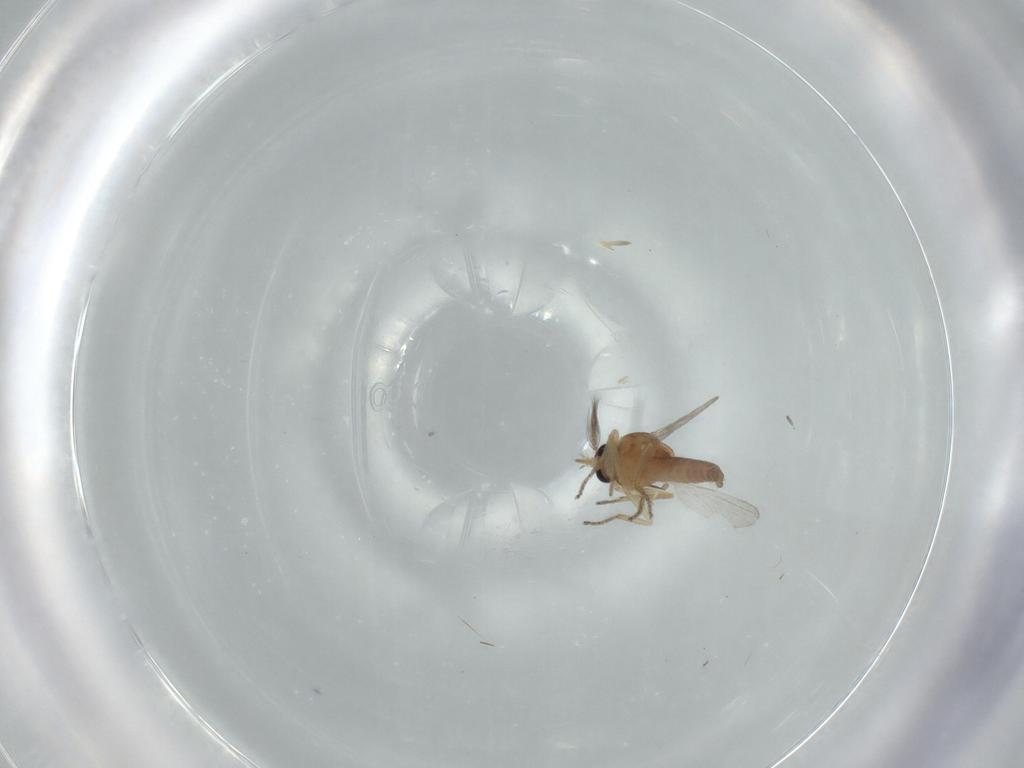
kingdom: Animalia
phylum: Arthropoda
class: Insecta
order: Diptera
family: Ceratopogonidae
